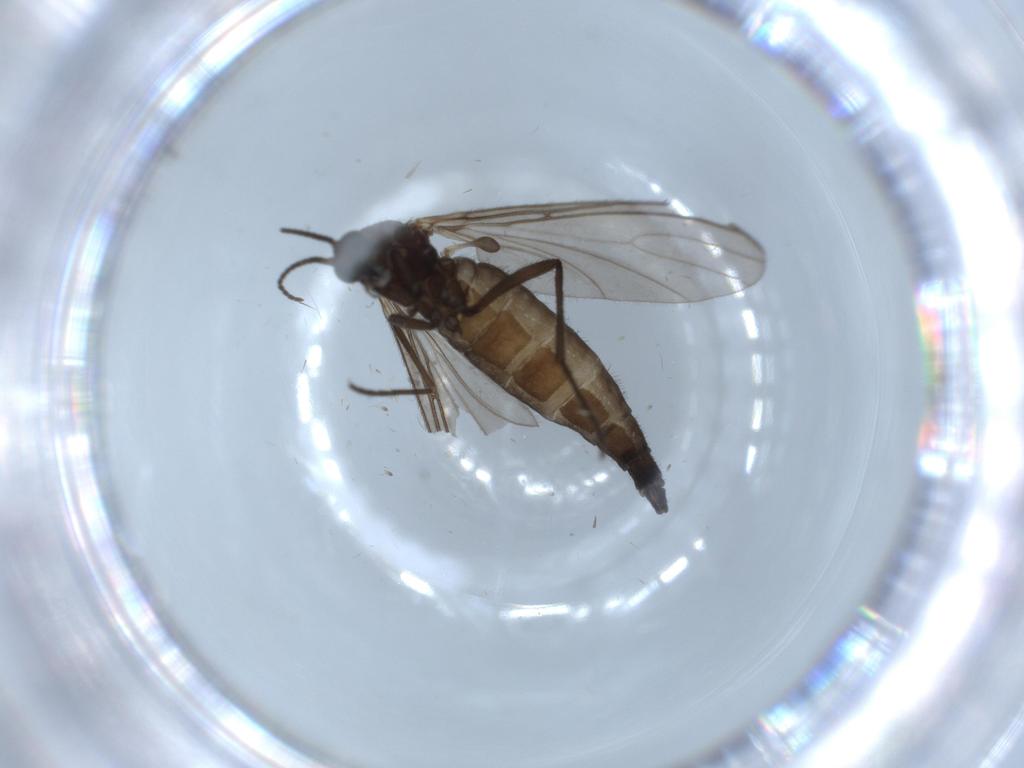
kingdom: Animalia
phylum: Arthropoda
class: Insecta
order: Diptera
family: Sciaridae
